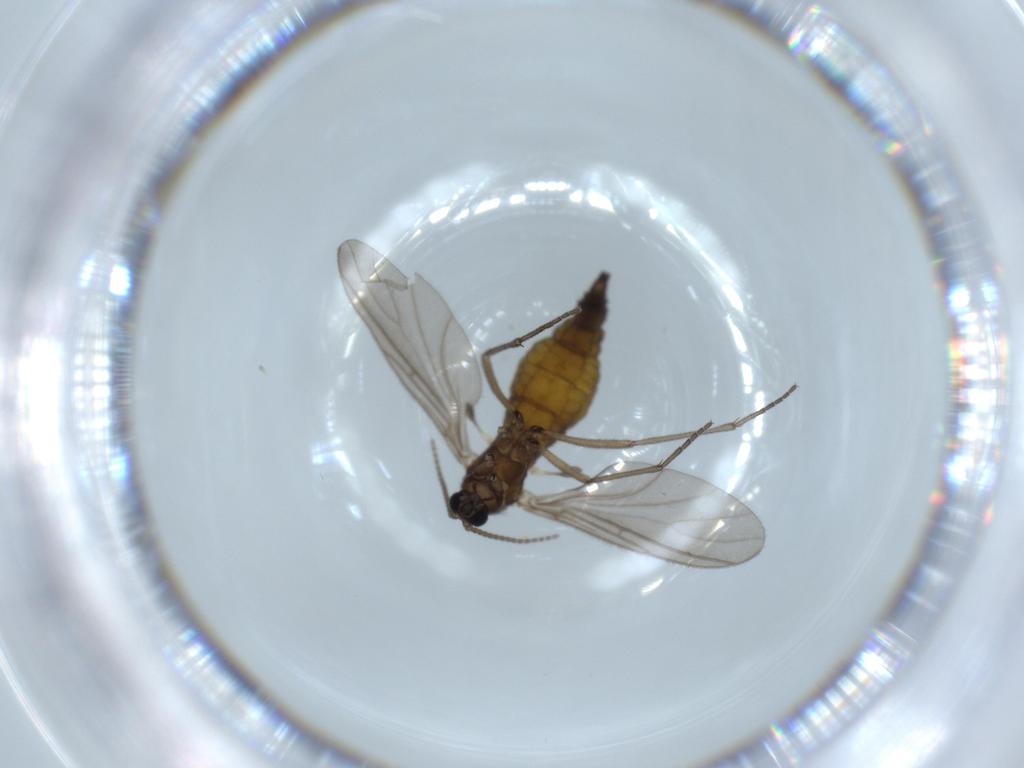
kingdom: Animalia
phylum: Arthropoda
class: Insecta
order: Diptera
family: Sciaridae
